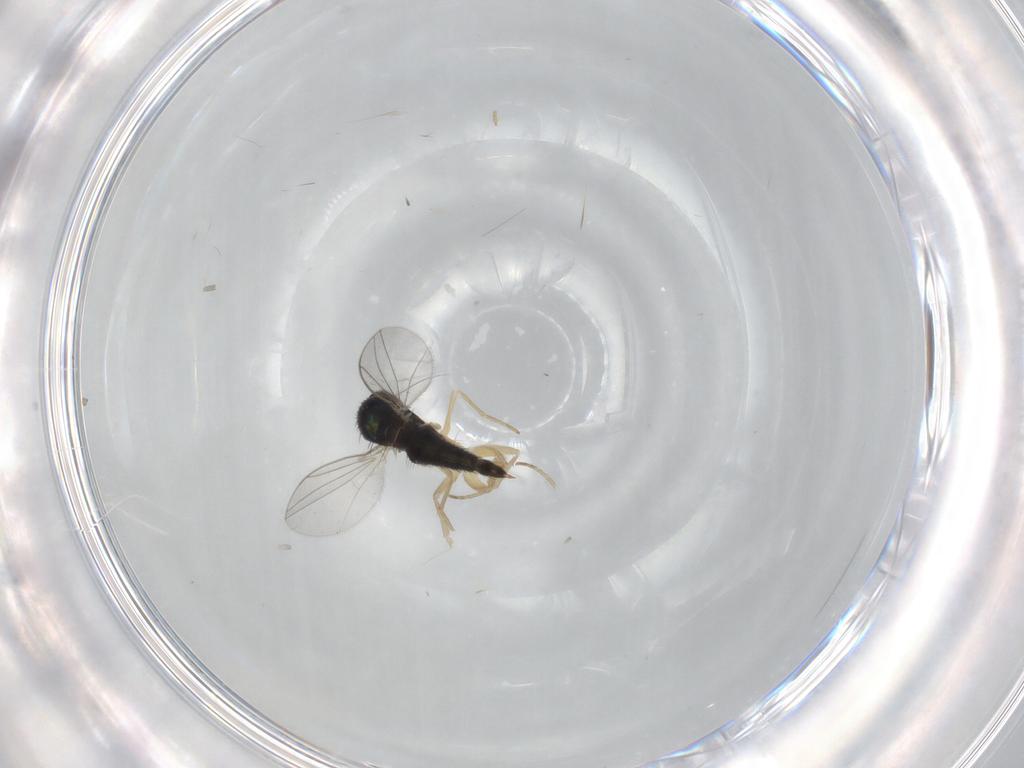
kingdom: Animalia
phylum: Arthropoda
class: Insecta
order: Diptera
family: Dolichopodidae
